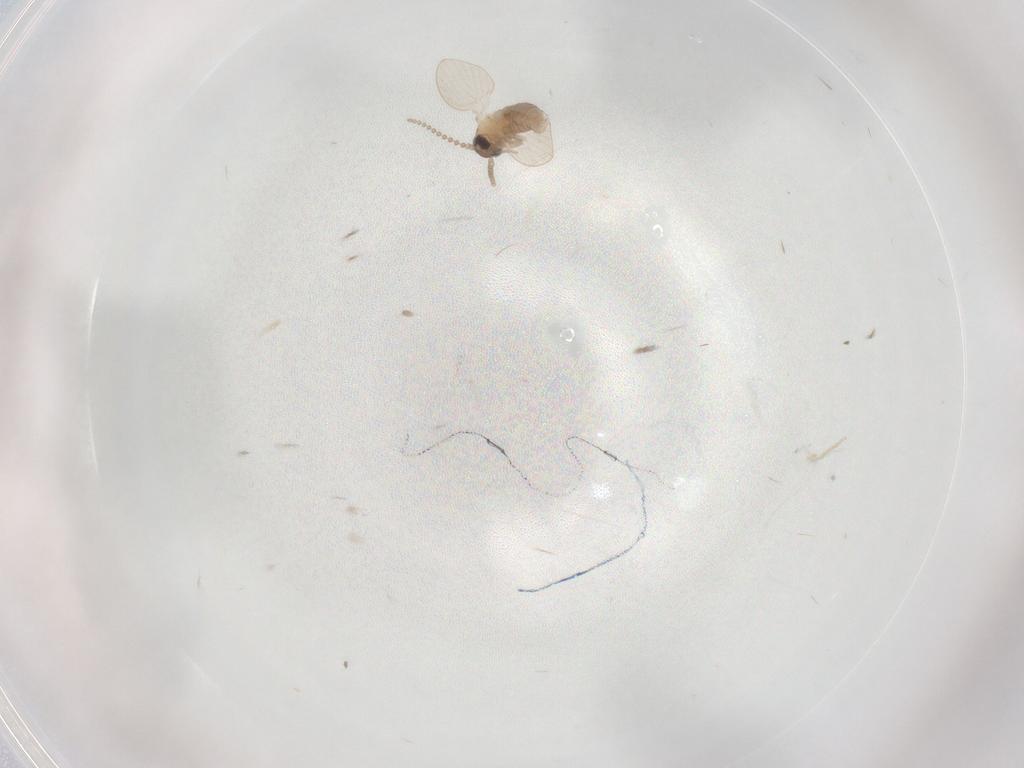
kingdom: Animalia
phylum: Arthropoda
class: Insecta
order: Diptera
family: Psychodidae
